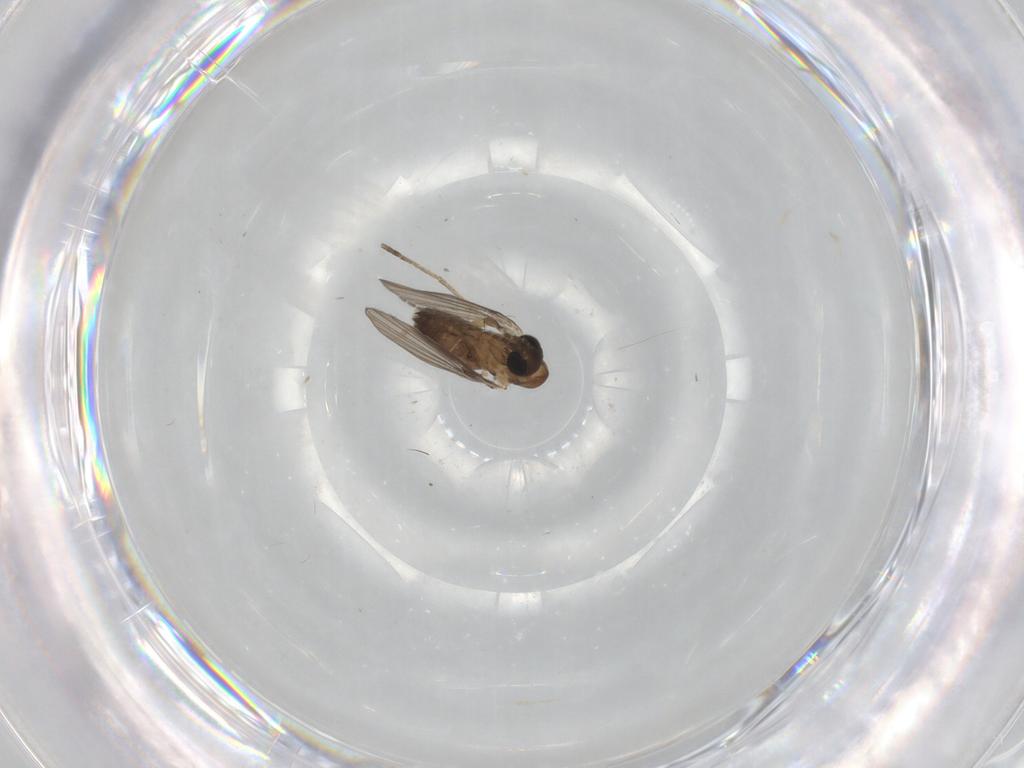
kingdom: Animalia
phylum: Arthropoda
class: Insecta
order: Diptera
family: Psychodidae
